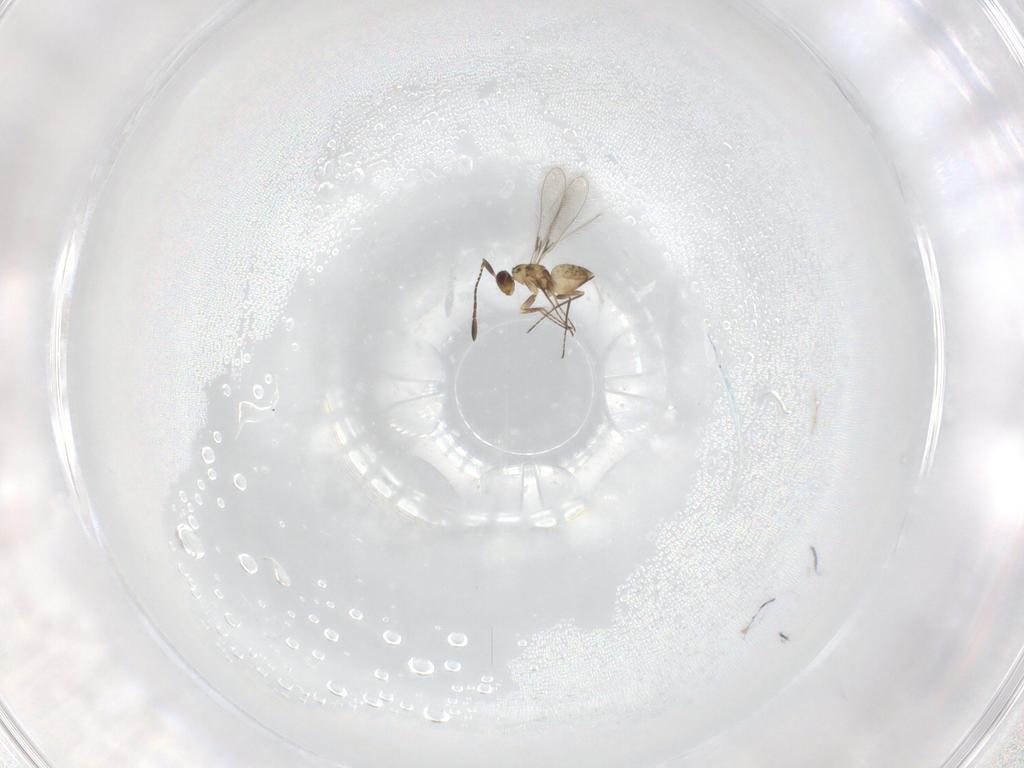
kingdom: Animalia
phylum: Arthropoda
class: Insecta
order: Hymenoptera
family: Mymaridae
